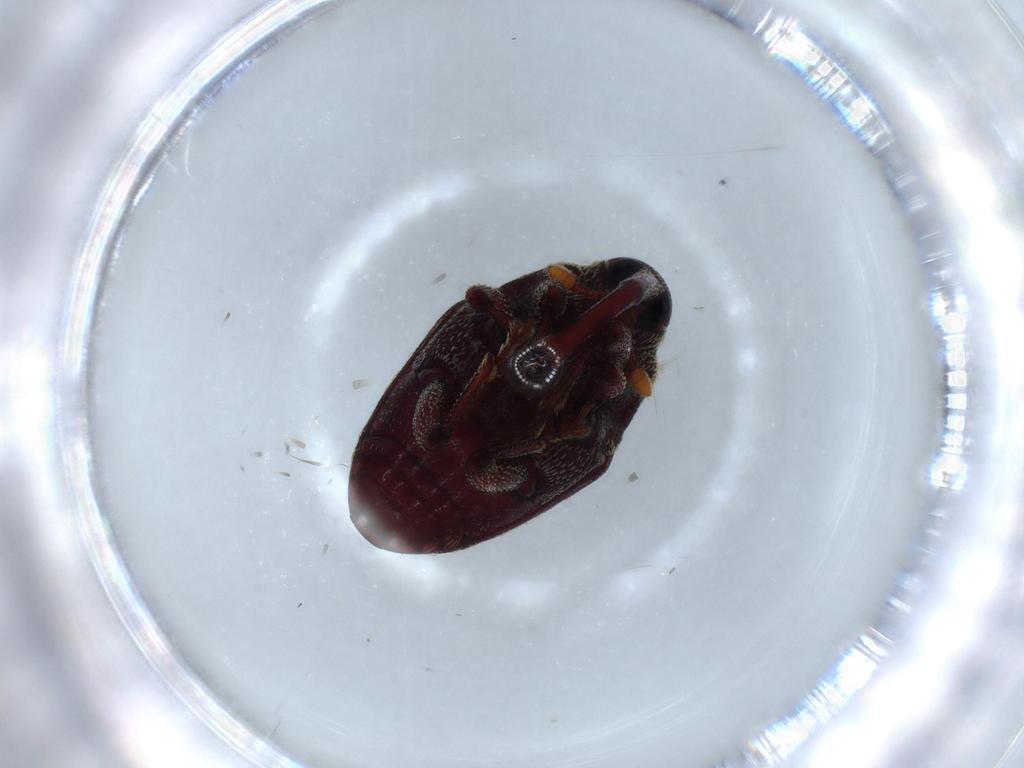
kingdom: Animalia
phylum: Arthropoda
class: Insecta
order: Coleoptera
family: Curculionidae
